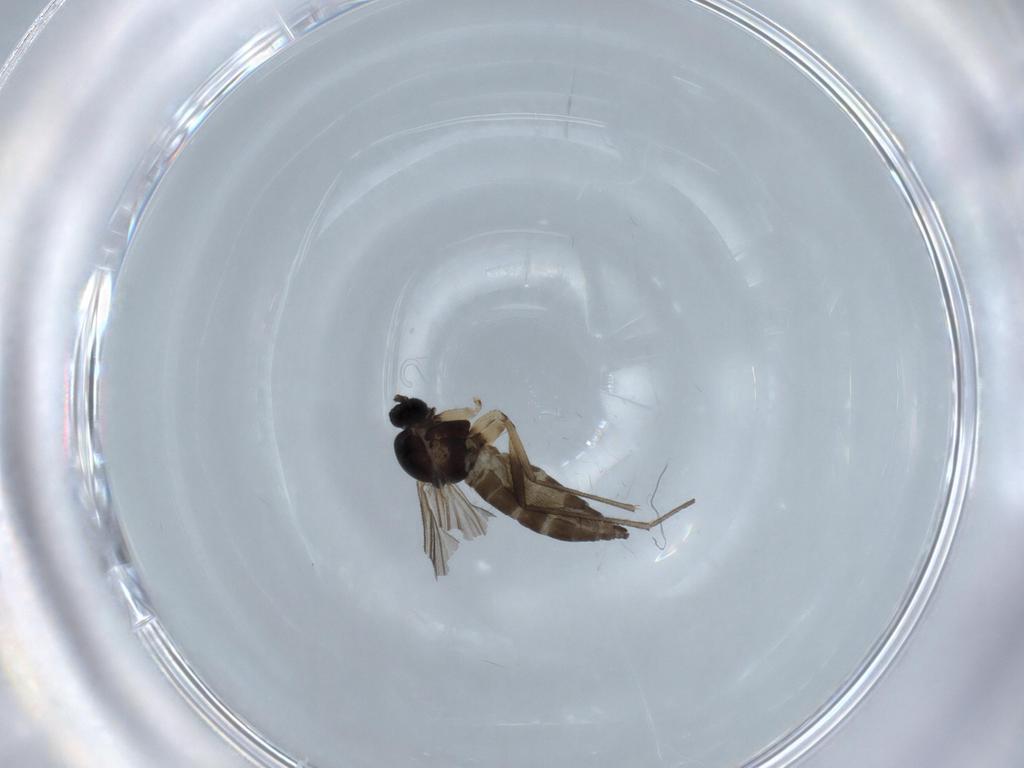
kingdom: Animalia
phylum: Arthropoda
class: Insecta
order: Diptera
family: Sciaridae
